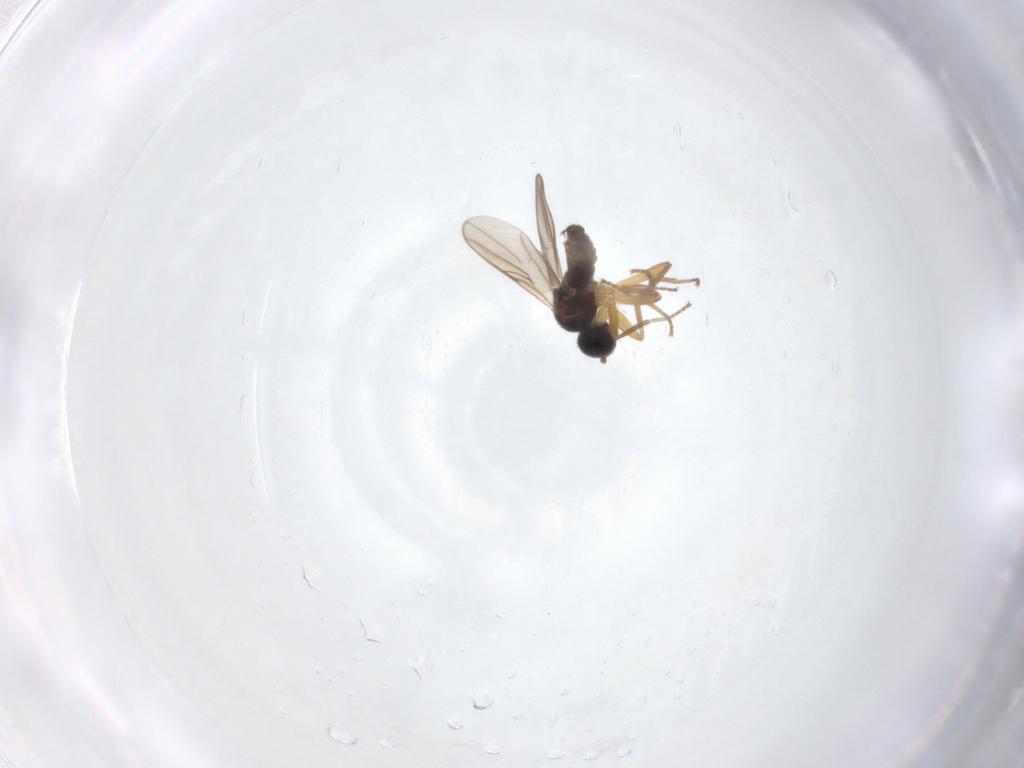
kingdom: Animalia
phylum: Arthropoda
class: Insecta
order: Diptera
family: Hybotidae
